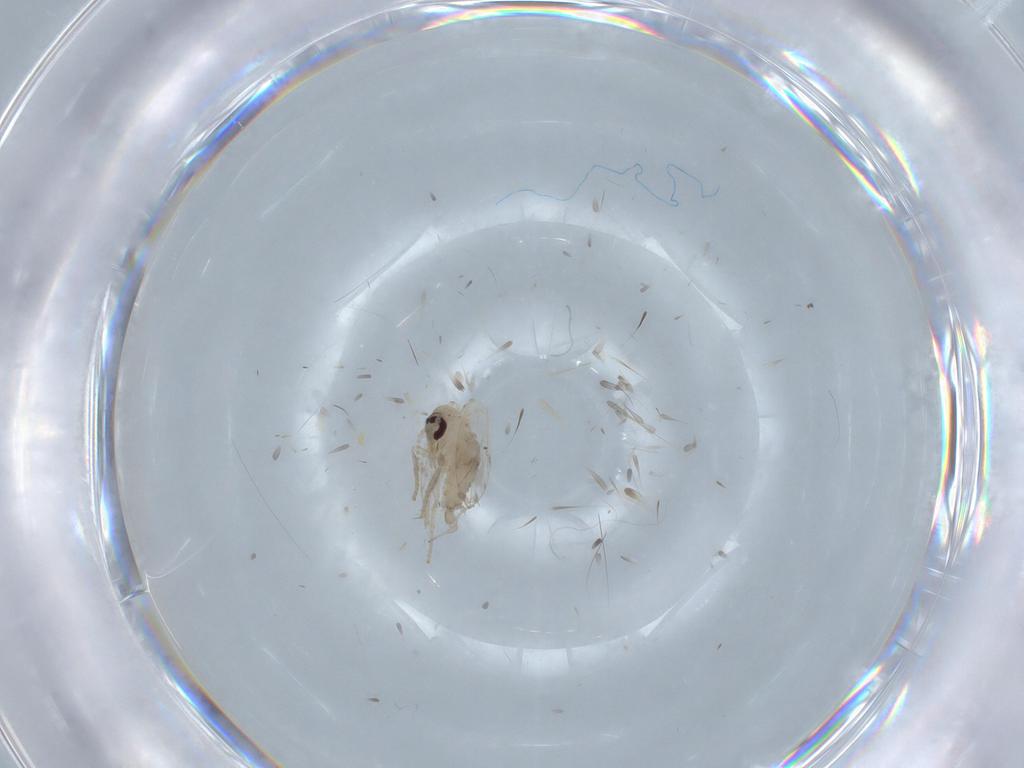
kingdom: Animalia
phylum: Arthropoda
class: Insecta
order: Diptera
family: Psychodidae
